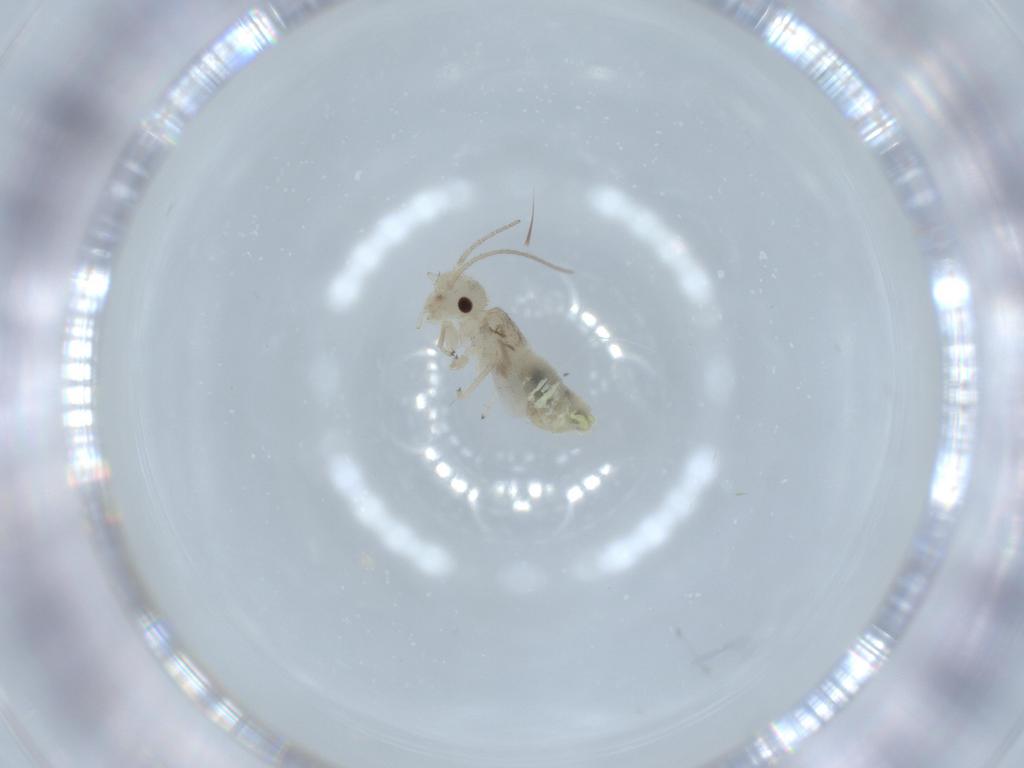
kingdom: Animalia
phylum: Arthropoda
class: Insecta
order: Psocodea
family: Caeciliusidae
